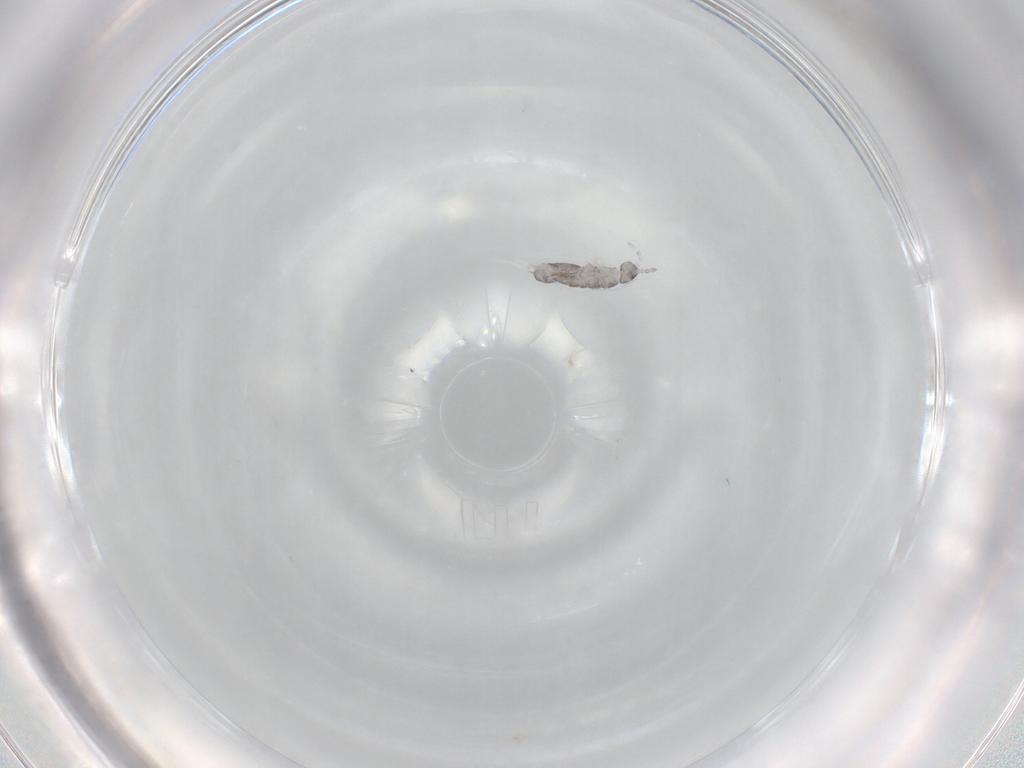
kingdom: Animalia
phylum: Arthropoda
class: Collembola
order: Entomobryomorpha
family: Isotomidae
